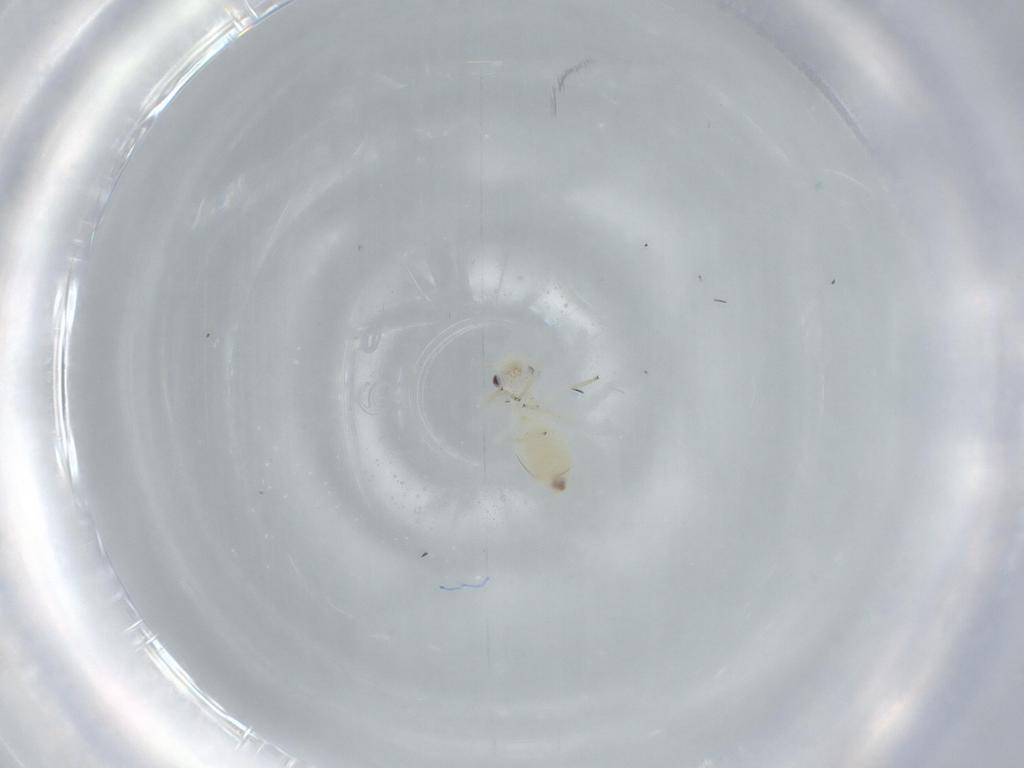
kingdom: Animalia
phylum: Arthropoda
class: Insecta
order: Psocodea
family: Caeciliusidae
